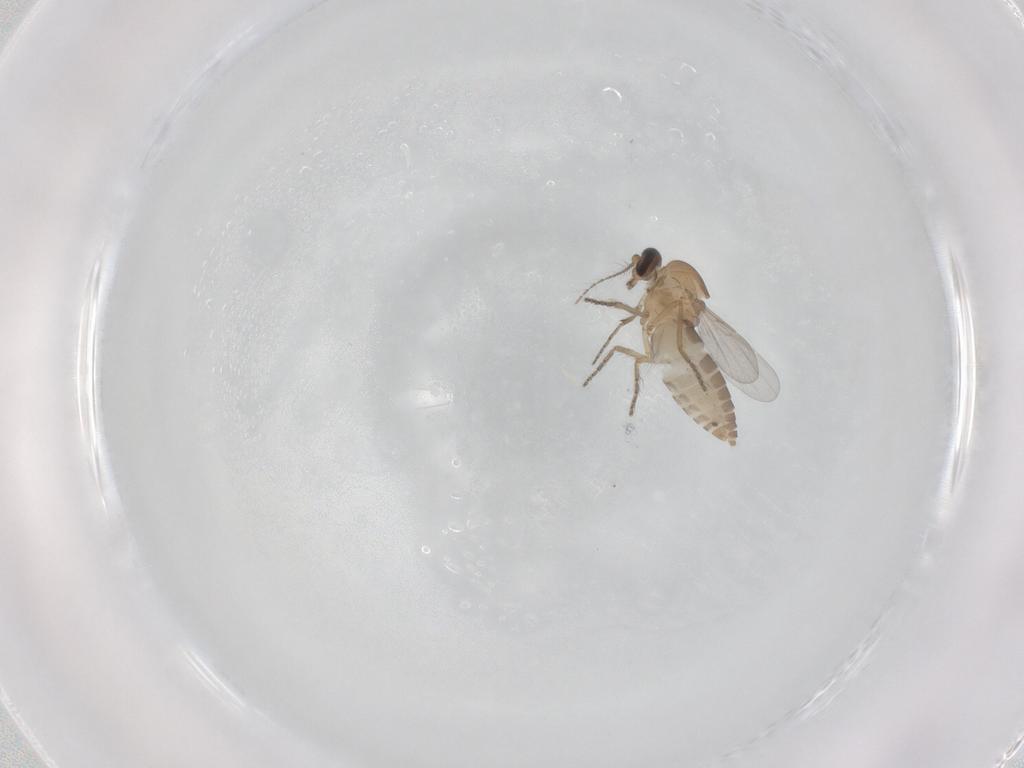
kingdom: Animalia
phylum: Arthropoda
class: Insecta
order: Diptera
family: Ceratopogonidae
